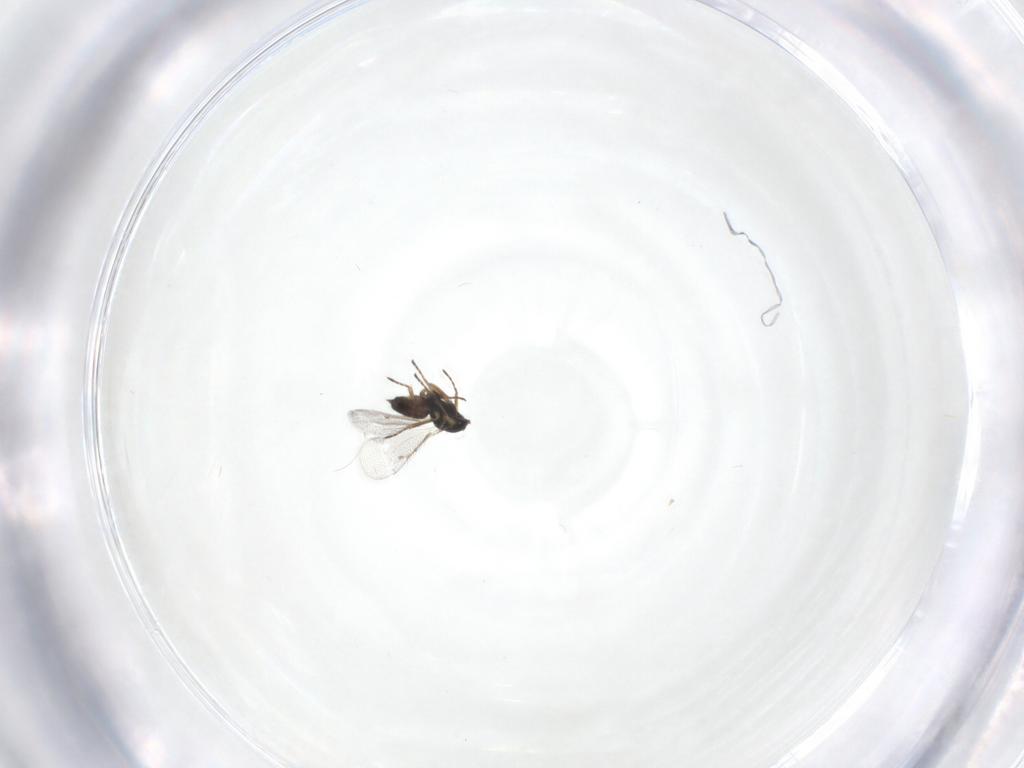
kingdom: Animalia
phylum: Arthropoda
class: Insecta
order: Hymenoptera
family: Eulophidae
